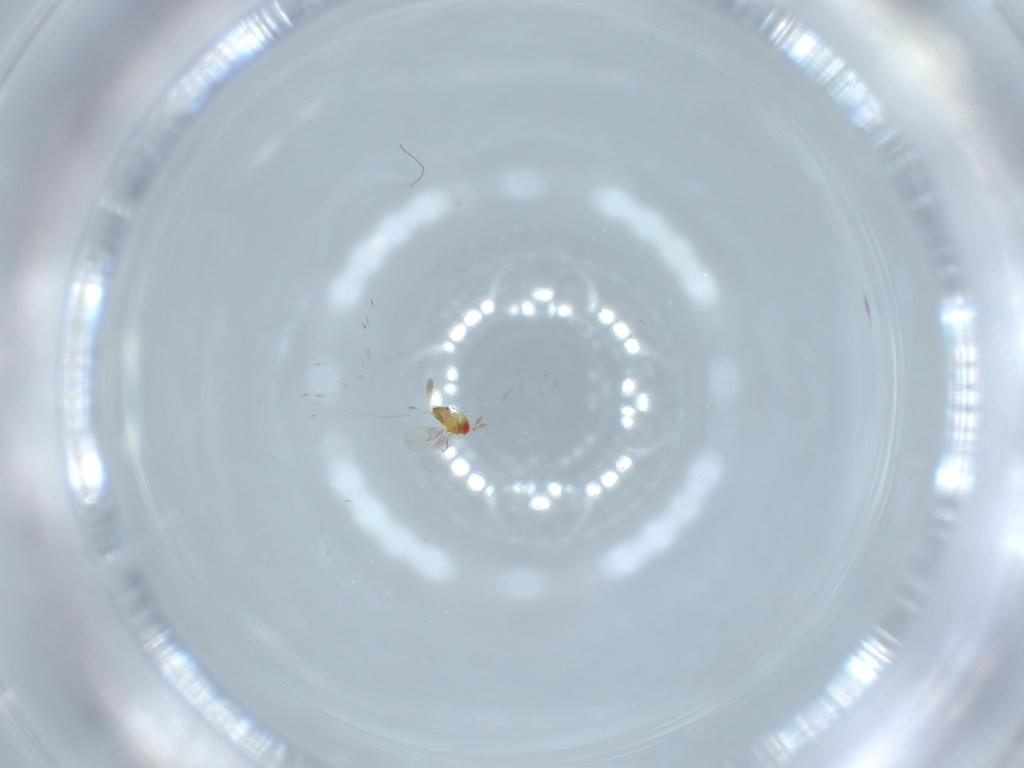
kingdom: Animalia
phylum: Arthropoda
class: Insecta
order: Hymenoptera
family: Trichogrammatidae
